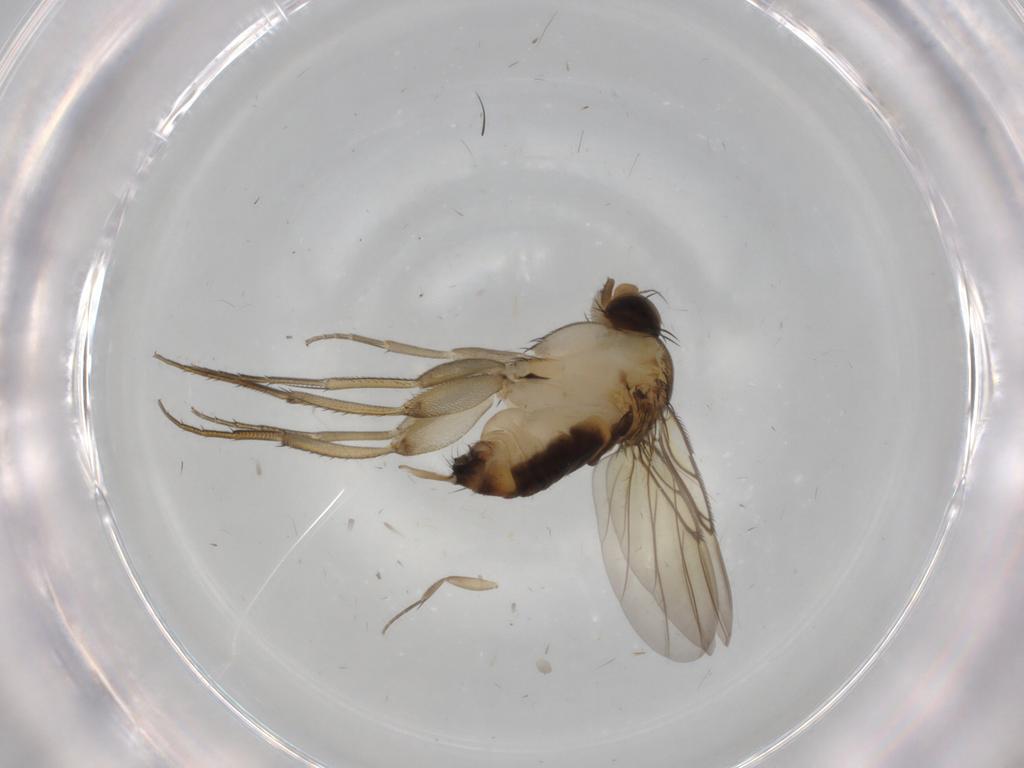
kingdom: Animalia
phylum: Arthropoda
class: Insecta
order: Diptera
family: Phoridae
